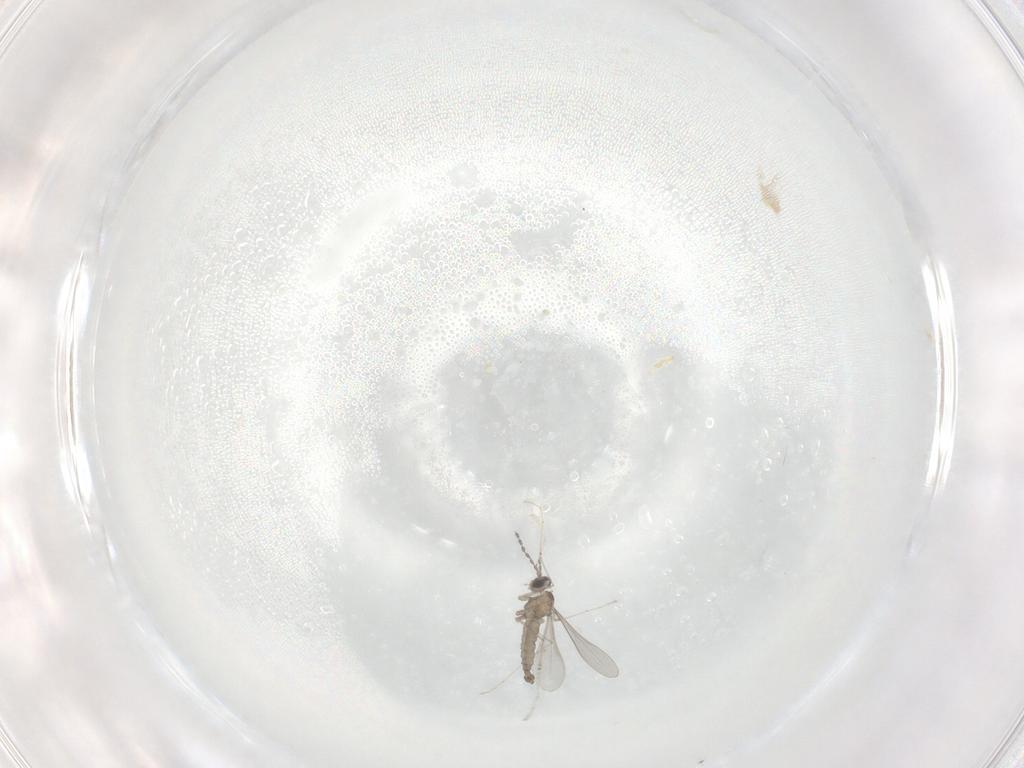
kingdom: Animalia
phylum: Arthropoda
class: Insecta
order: Diptera
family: Cecidomyiidae
